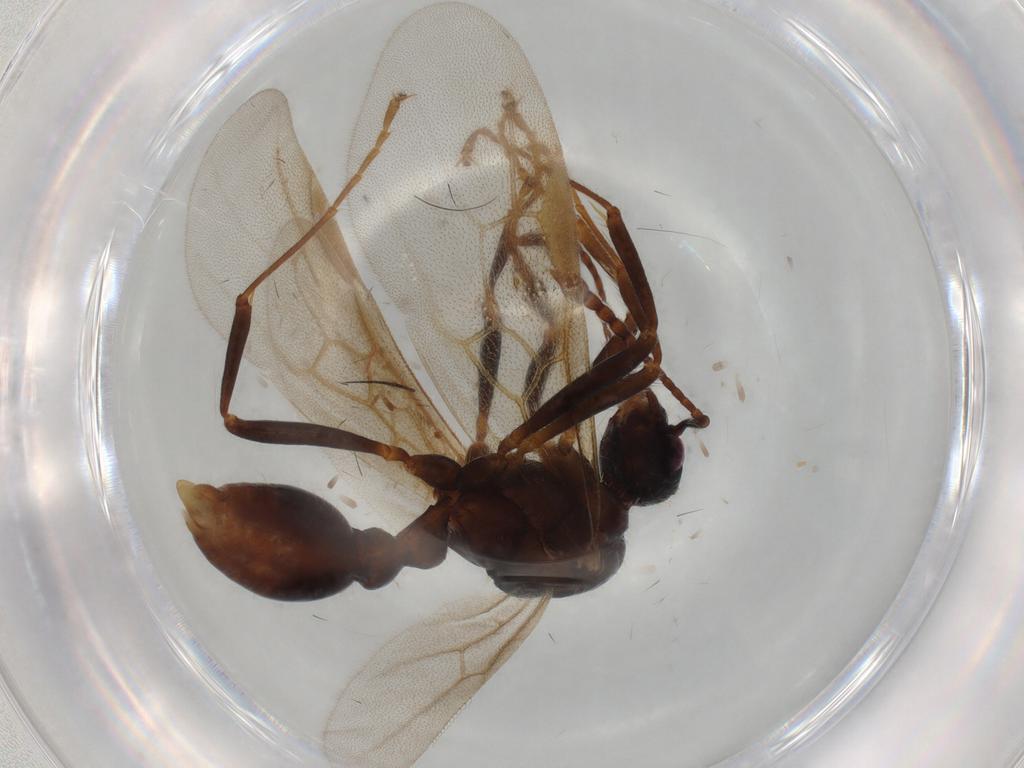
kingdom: Animalia
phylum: Arthropoda
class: Insecta
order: Hymenoptera
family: Formicidae
